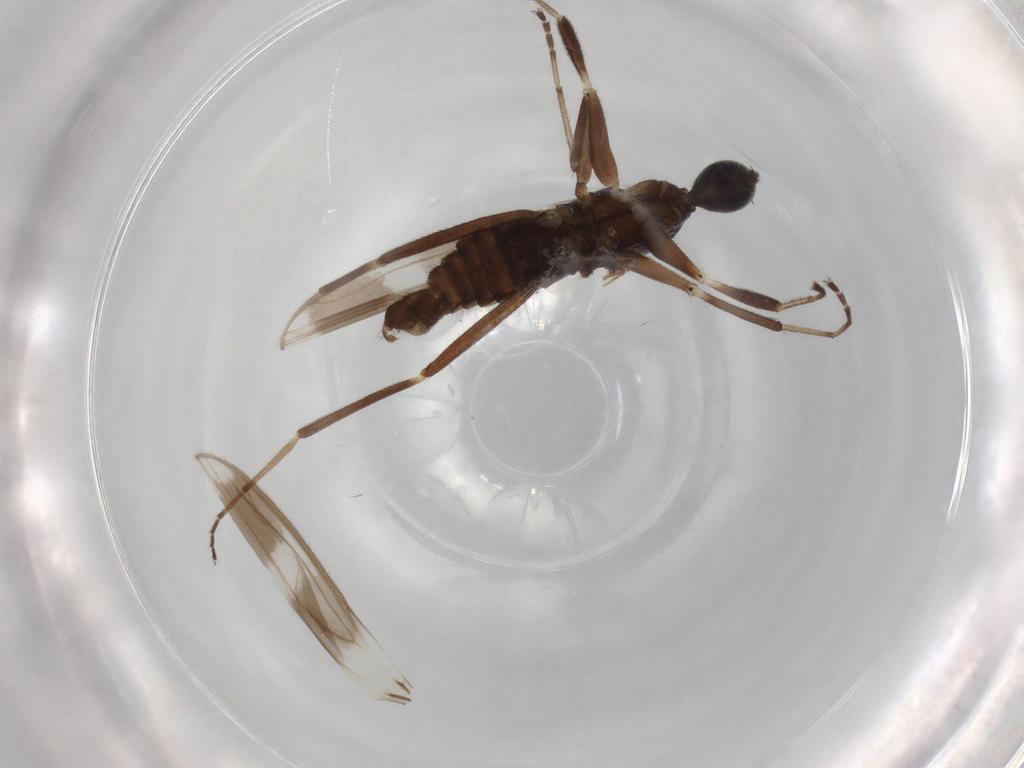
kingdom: Animalia
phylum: Arthropoda
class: Insecta
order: Diptera
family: Hybotidae
